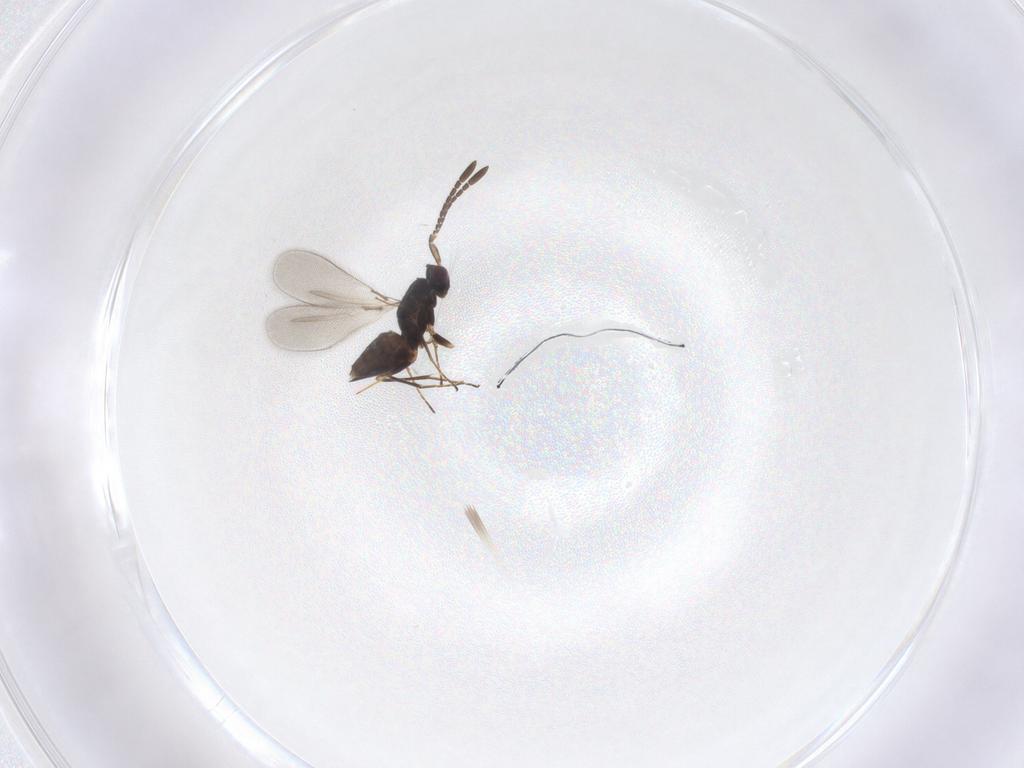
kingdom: Animalia
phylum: Arthropoda
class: Insecta
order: Hymenoptera
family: Mymaridae
